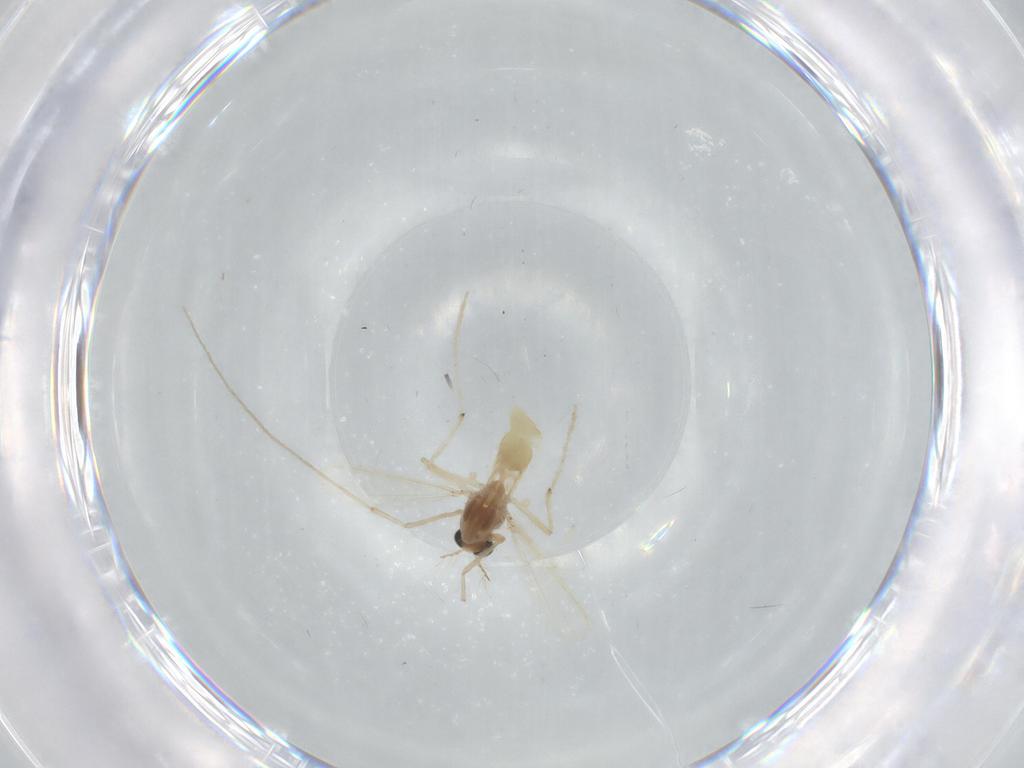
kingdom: Animalia
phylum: Arthropoda
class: Insecta
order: Diptera
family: Chironomidae
